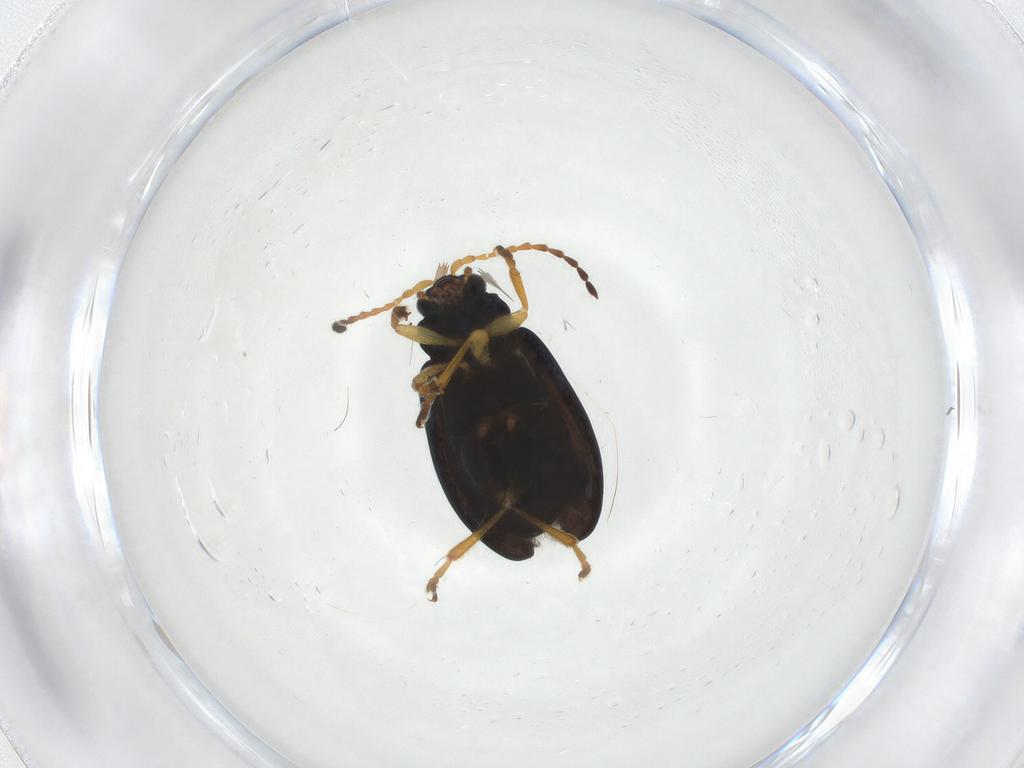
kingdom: Animalia
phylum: Arthropoda
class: Insecta
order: Coleoptera
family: Chrysomelidae
